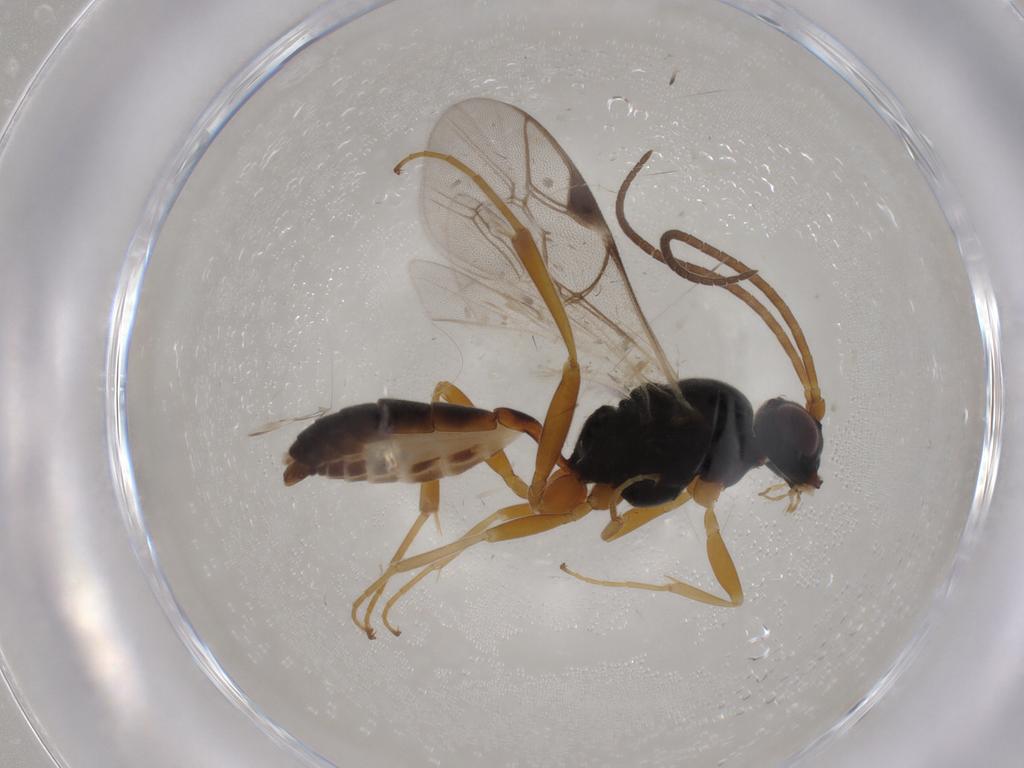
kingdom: Animalia
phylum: Arthropoda
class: Insecta
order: Hymenoptera
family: Ichneumonidae
